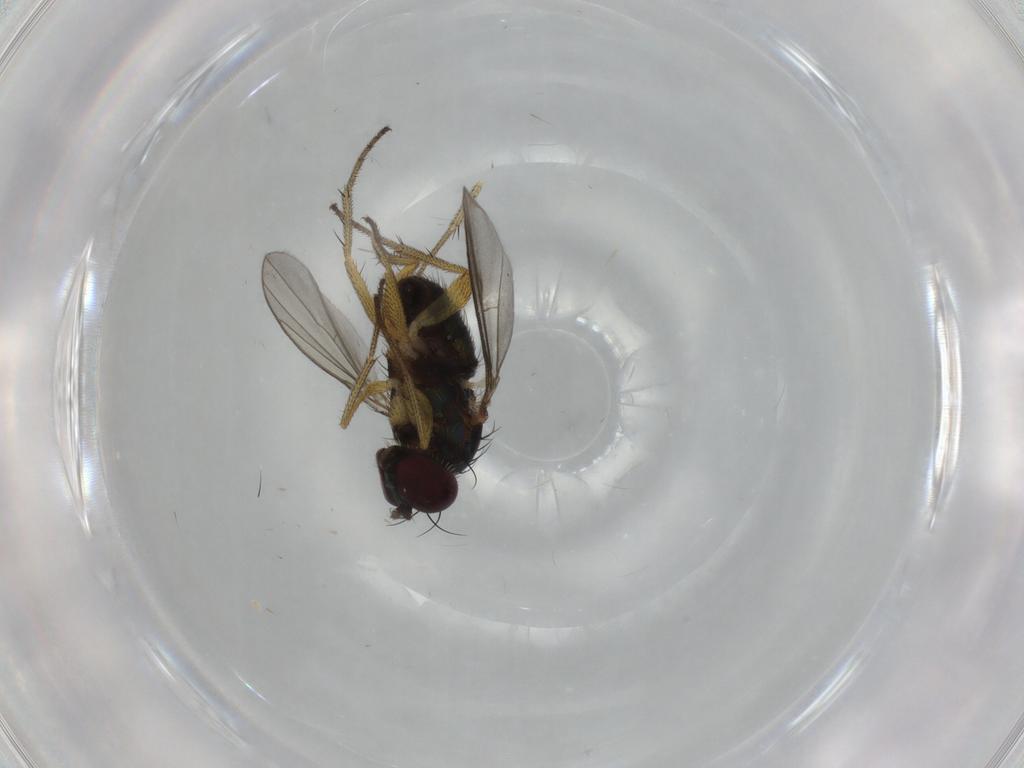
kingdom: Animalia
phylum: Arthropoda
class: Insecta
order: Diptera
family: Dolichopodidae
